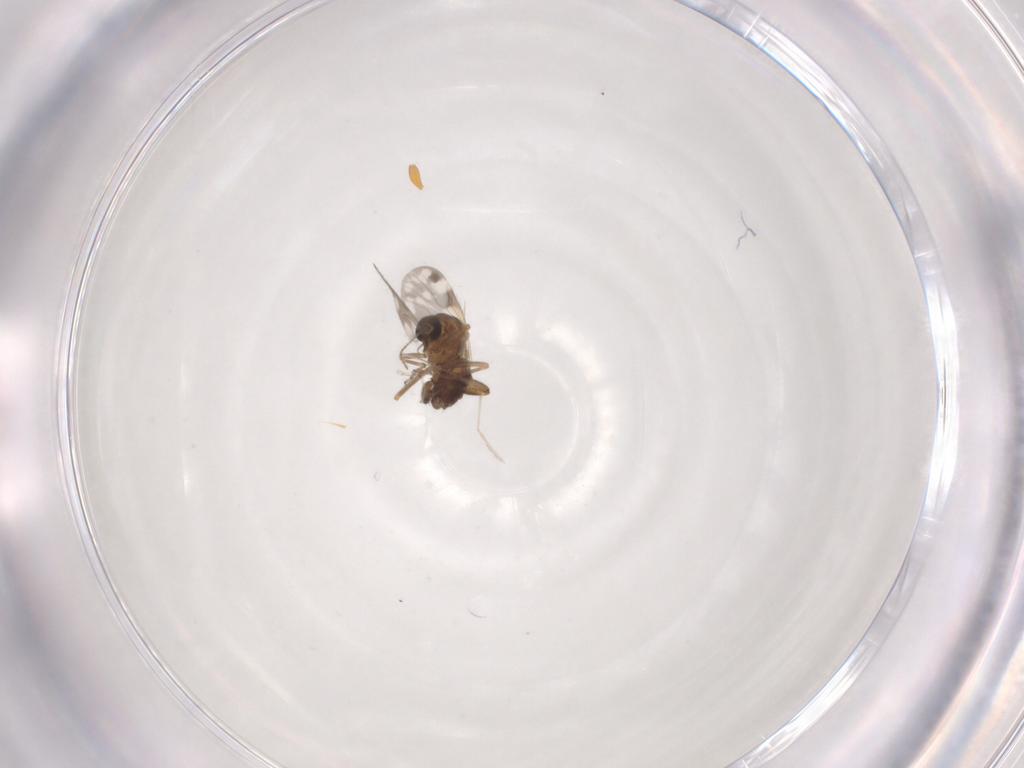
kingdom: Animalia
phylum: Arthropoda
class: Insecta
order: Diptera
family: Ceratopogonidae
